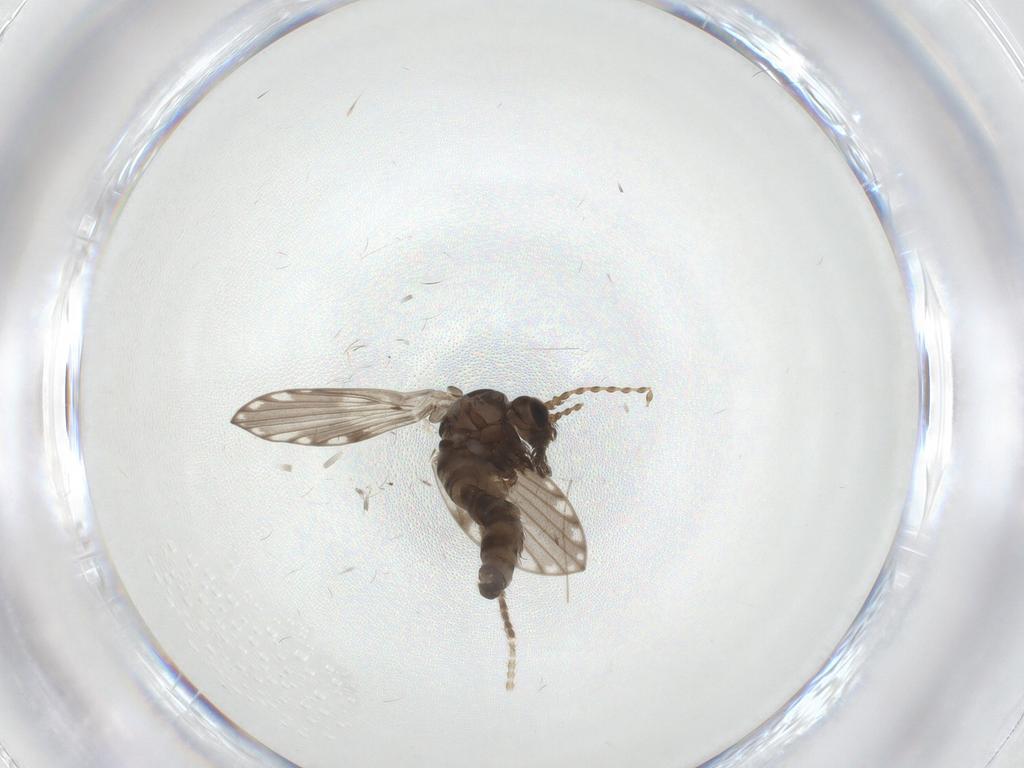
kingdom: Animalia
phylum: Arthropoda
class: Insecta
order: Diptera
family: Psychodidae
